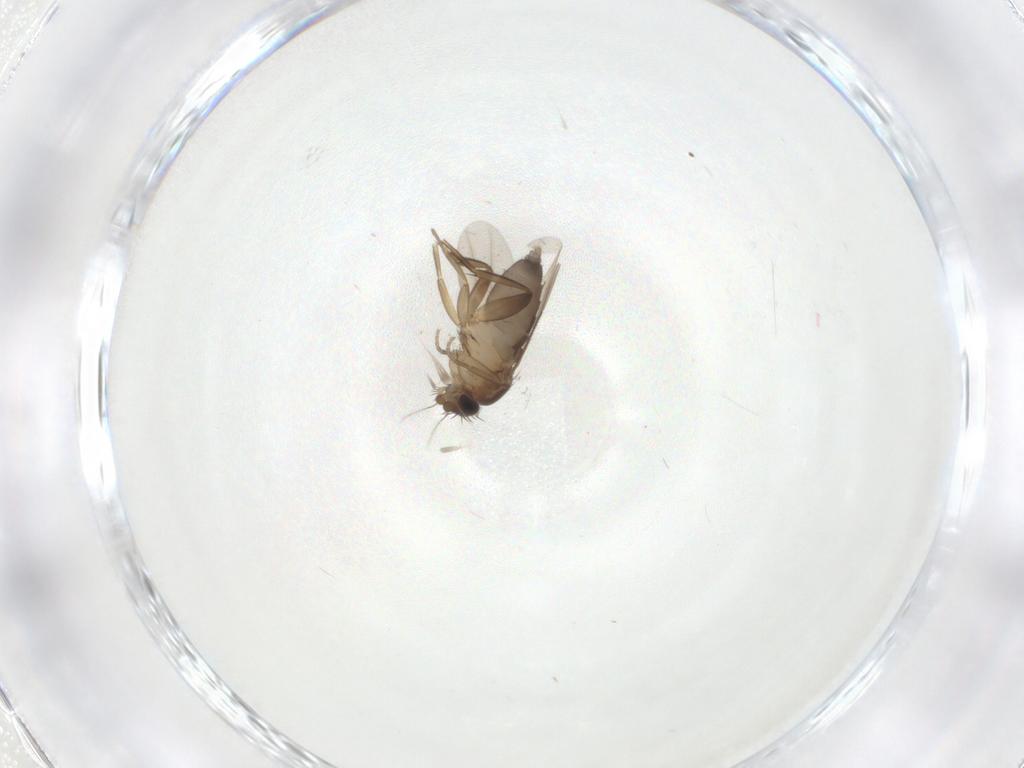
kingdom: Animalia
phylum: Arthropoda
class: Insecta
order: Diptera
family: Phoridae
